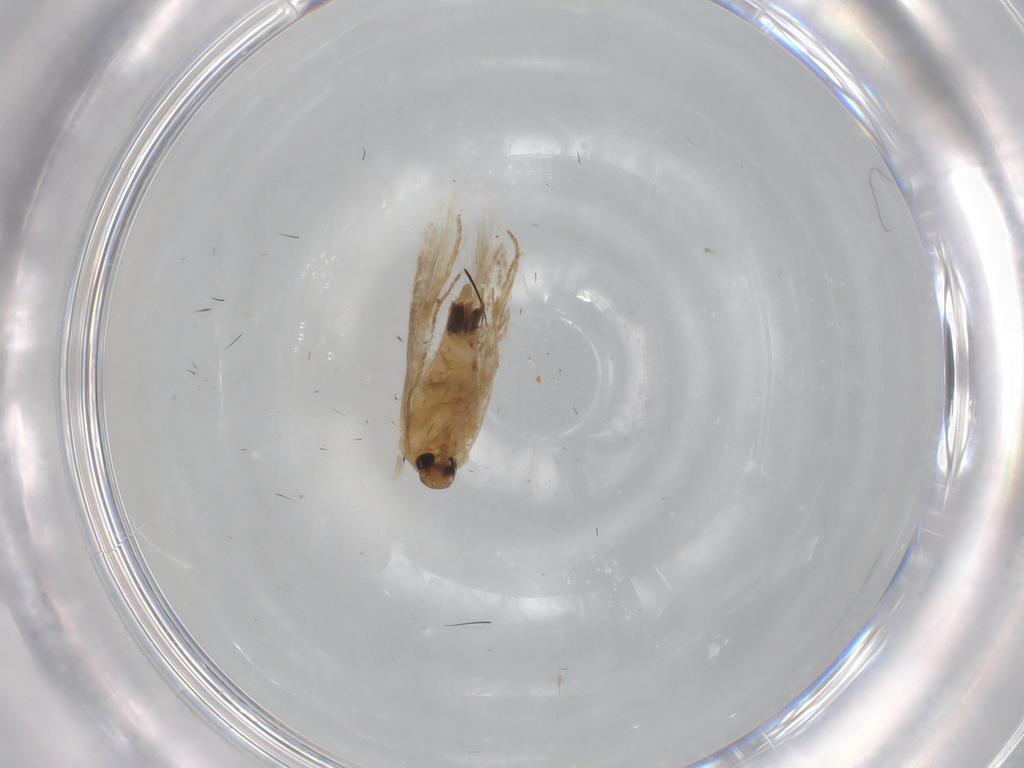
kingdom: Animalia
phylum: Arthropoda
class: Insecta
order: Lepidoptera
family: Cosmopterigidae
